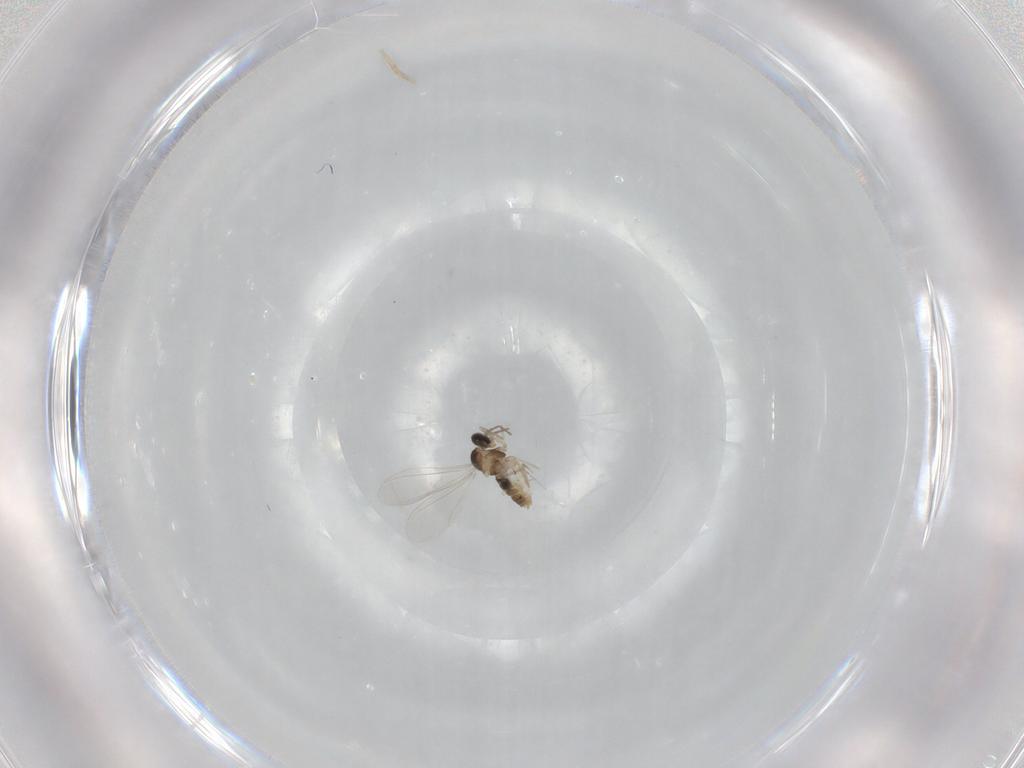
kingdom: Animalia
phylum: Arthropoda
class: Insecta
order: Diptera
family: Cecidomyiidae
